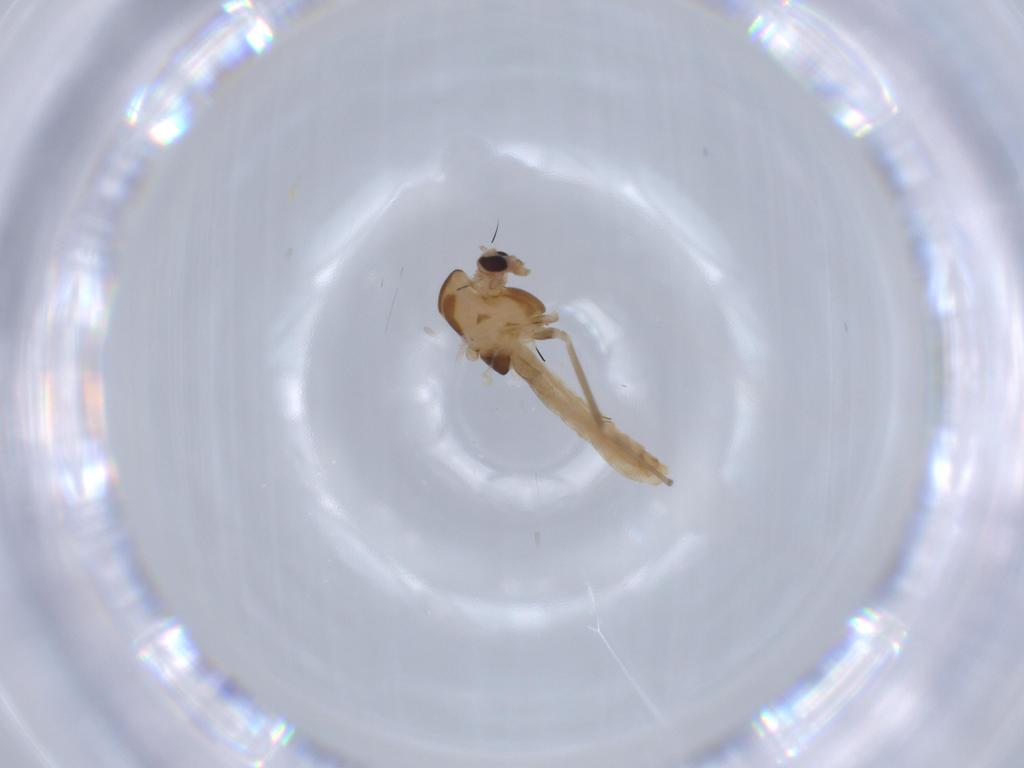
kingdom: Animalia
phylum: Arthropoda
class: Insecta
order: Diptera
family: Chironomidae
